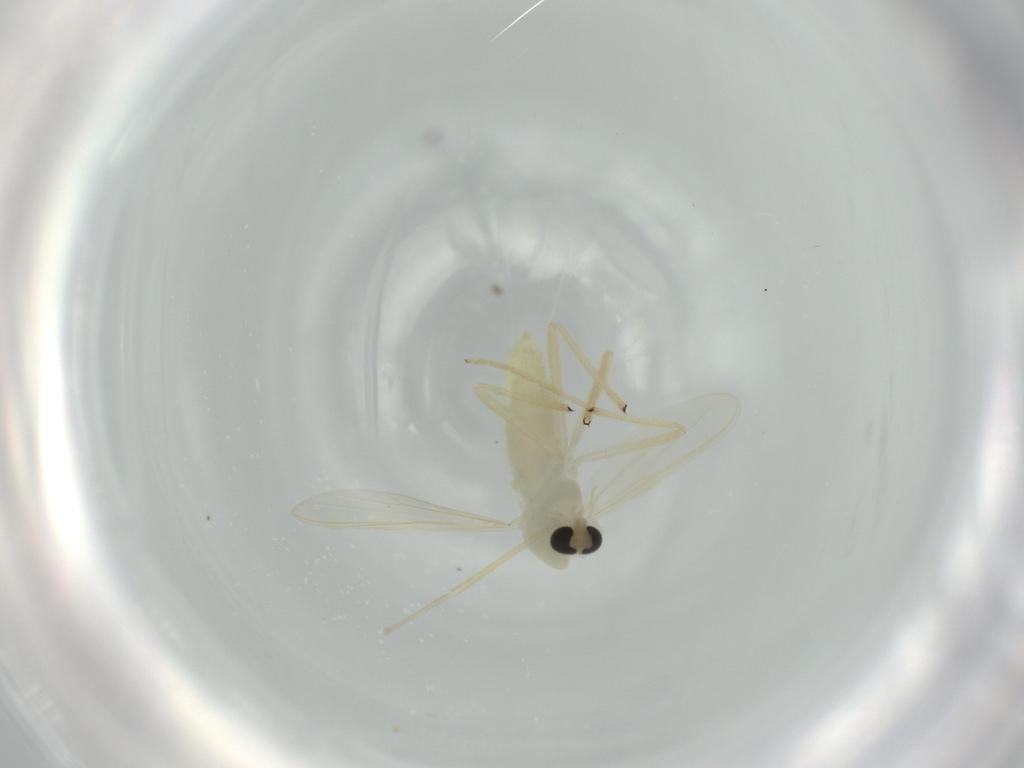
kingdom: Animalia
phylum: Arthropoda
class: Insecta
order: Diptera
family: Chironomidae
